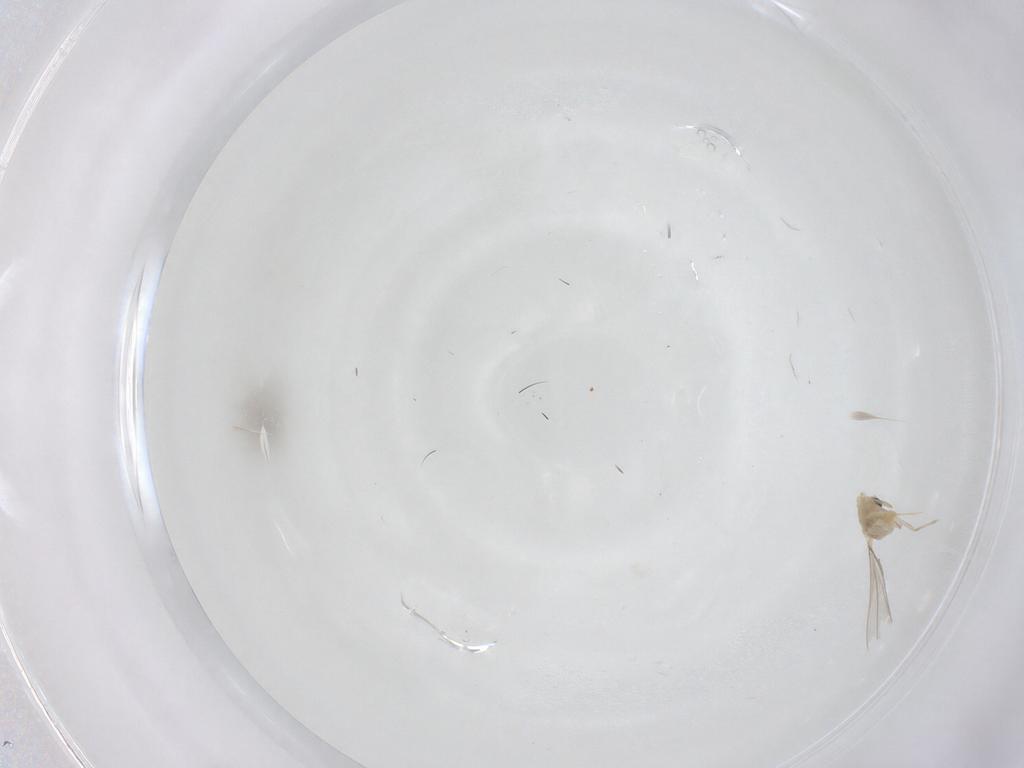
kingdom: Animalia
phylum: Arthropoda
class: Insecta
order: Diptera
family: Cecidomyiidae
